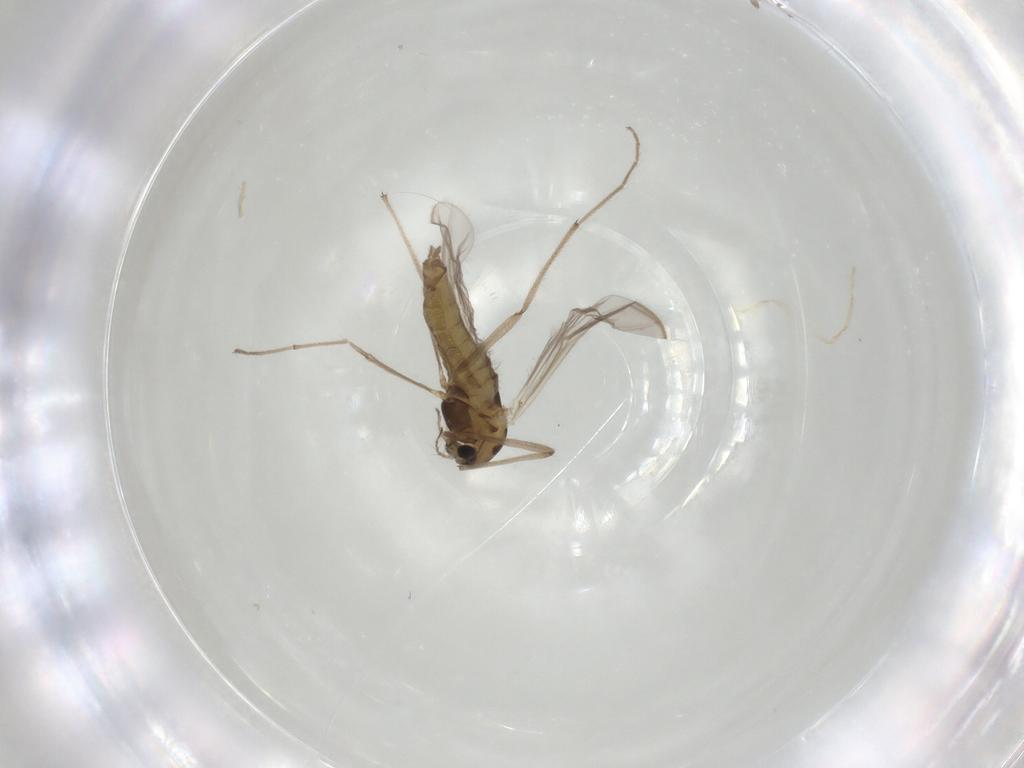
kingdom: Animalia
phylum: Arthropoda
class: Insecta
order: Diptera
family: Chironomidae
